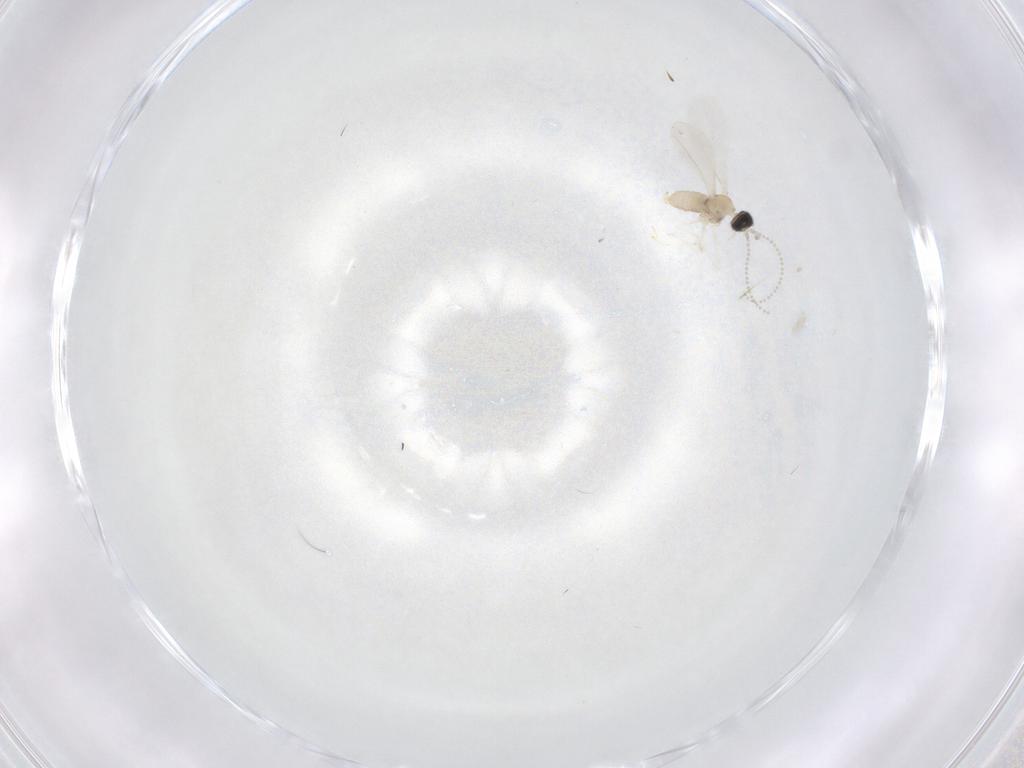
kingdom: Animalia
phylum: Arthropoda
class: Insecta
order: Diptera
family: Cecidomyiidae
